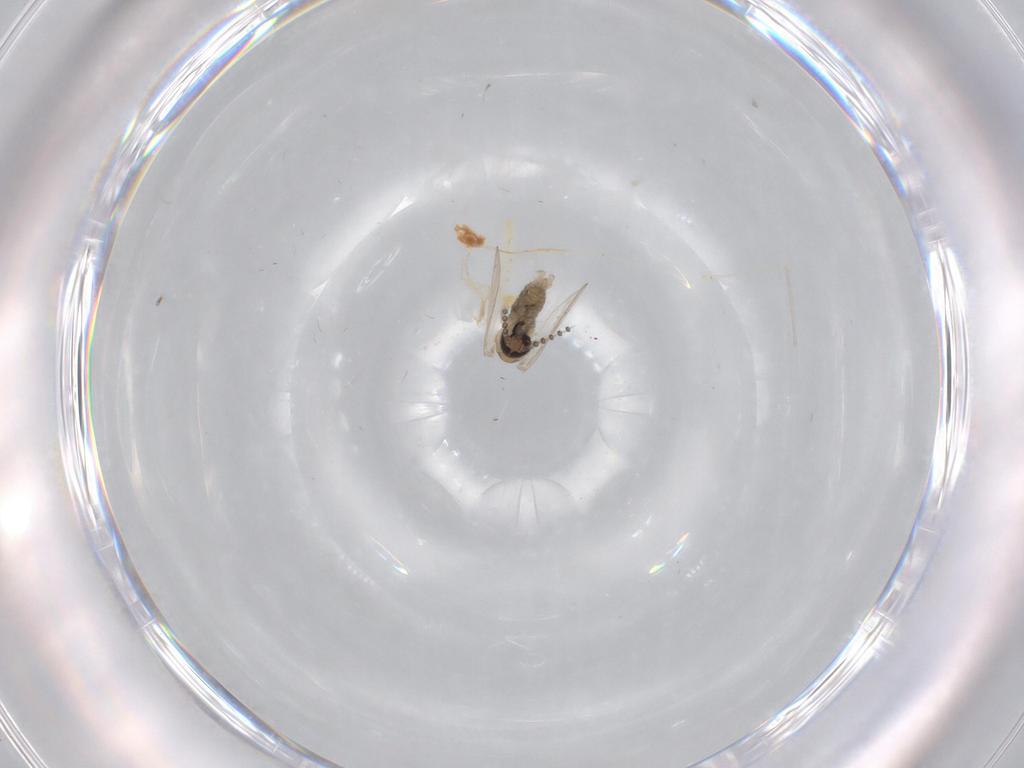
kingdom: Animalia
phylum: Arthropoda
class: Insecta
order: Diptera
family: Psychodidae
